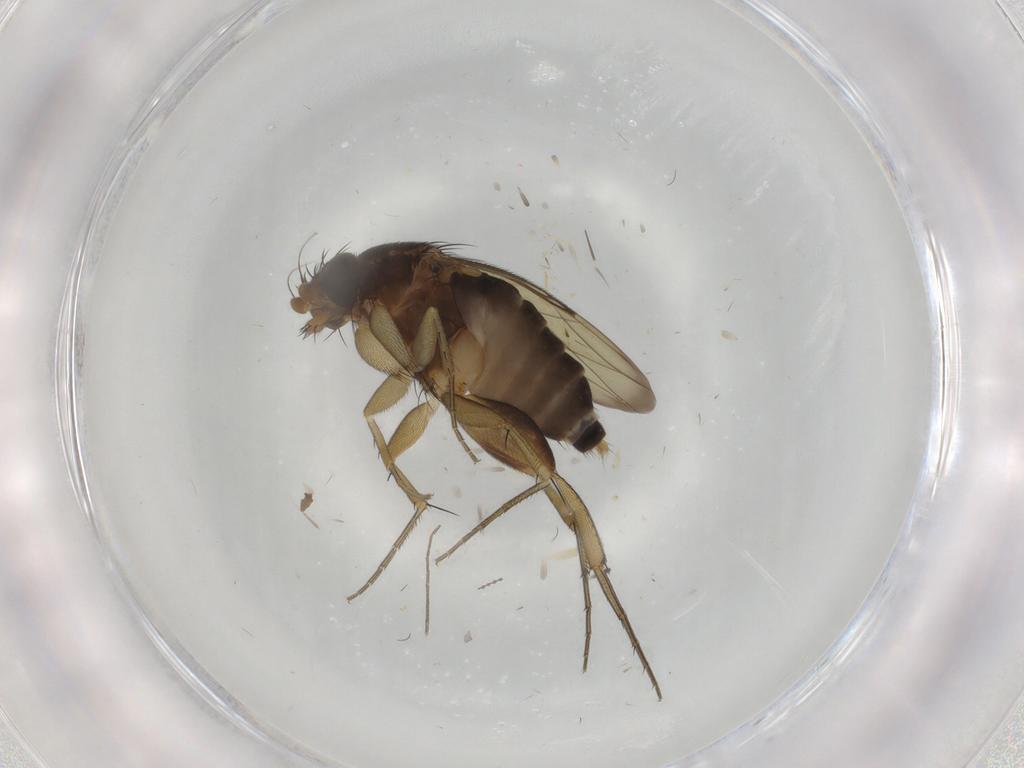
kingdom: Animalia
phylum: Arthropoda
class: Insecta
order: Diptera
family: Phoridae
